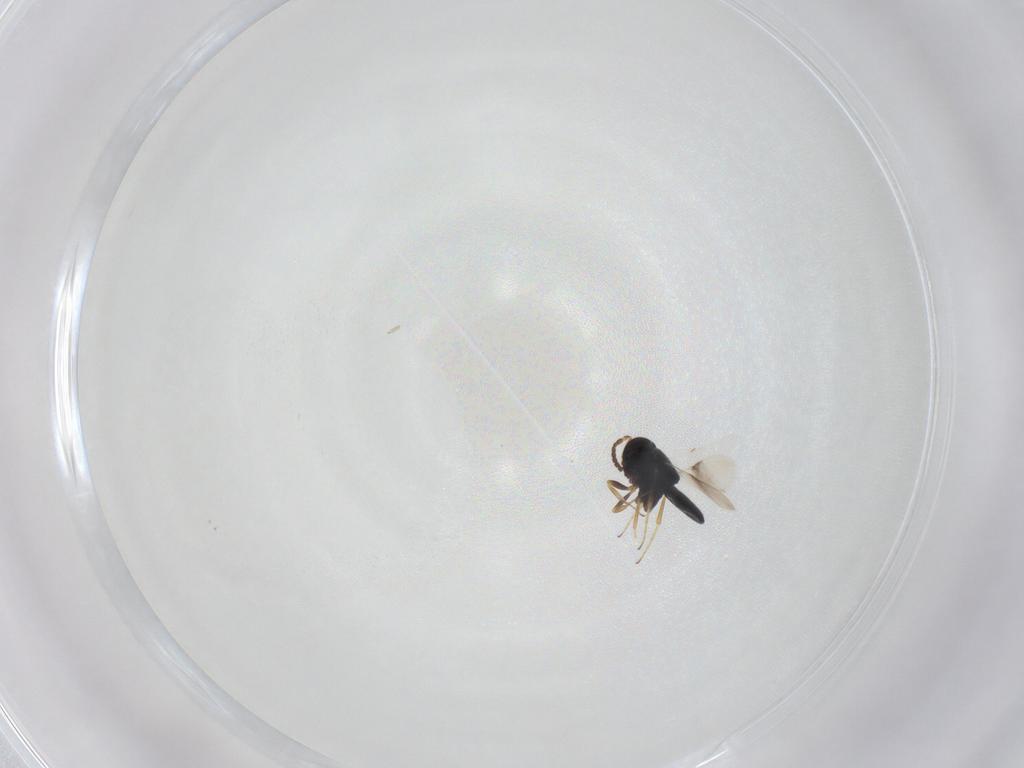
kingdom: Animalia
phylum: Arthropoda
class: Insecta
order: Hymenoptera
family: Scelionidae
